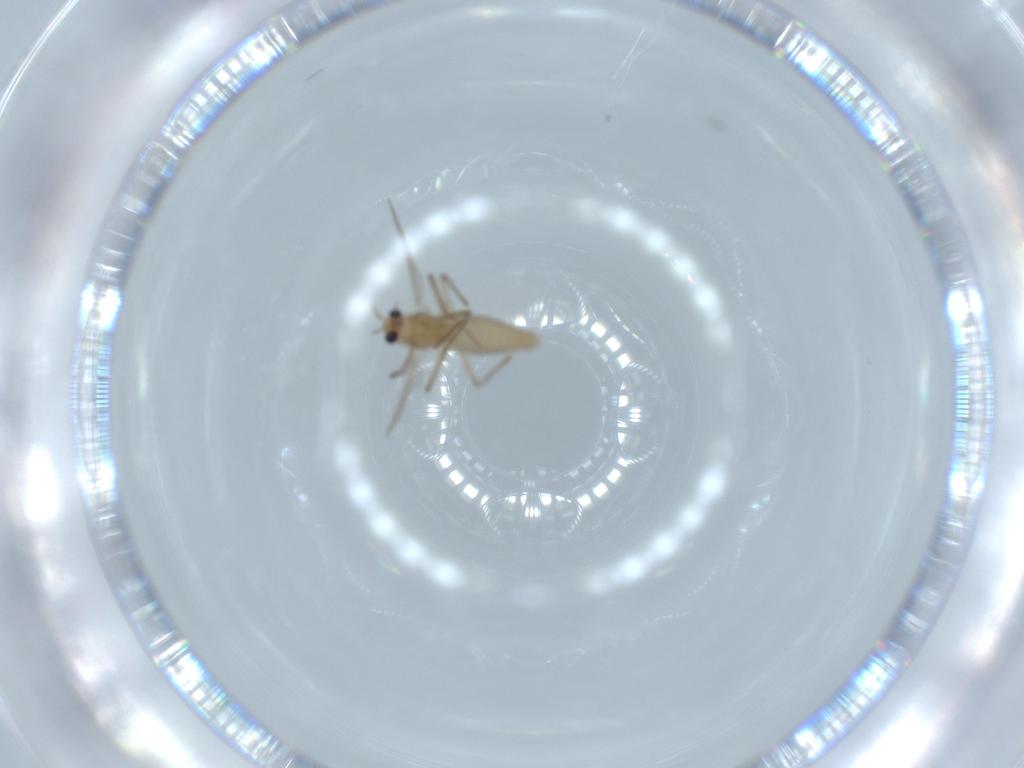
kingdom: Animalia
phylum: Arthropoda
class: Insecta
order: Diptera
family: Chironomidae
